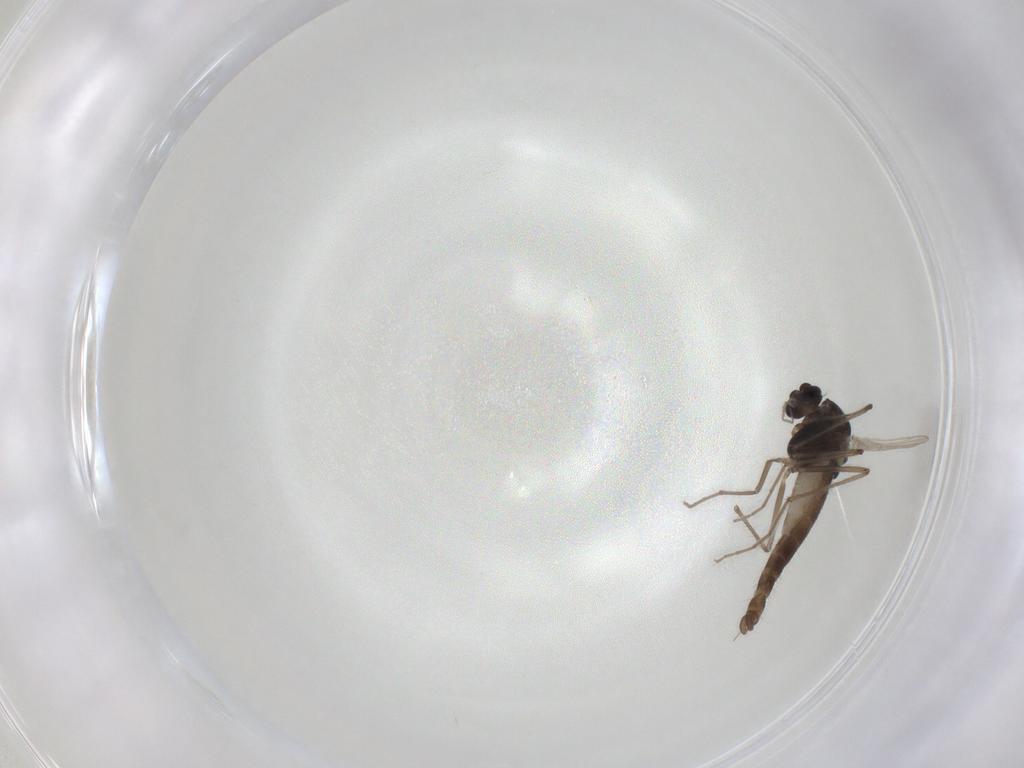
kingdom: Animalia
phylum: Arthropoda
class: Insecta
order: Diptera
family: Chironomidae
